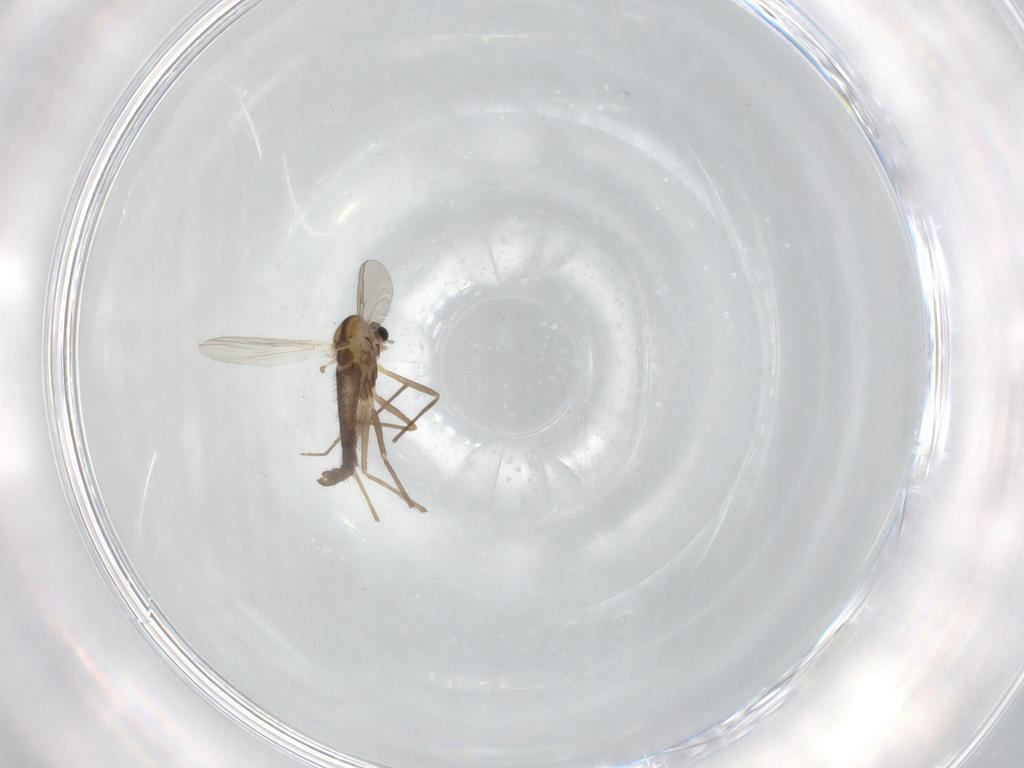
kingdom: Animalia
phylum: Arthropoda
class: Insecta
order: Diptera
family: Chironomidae
